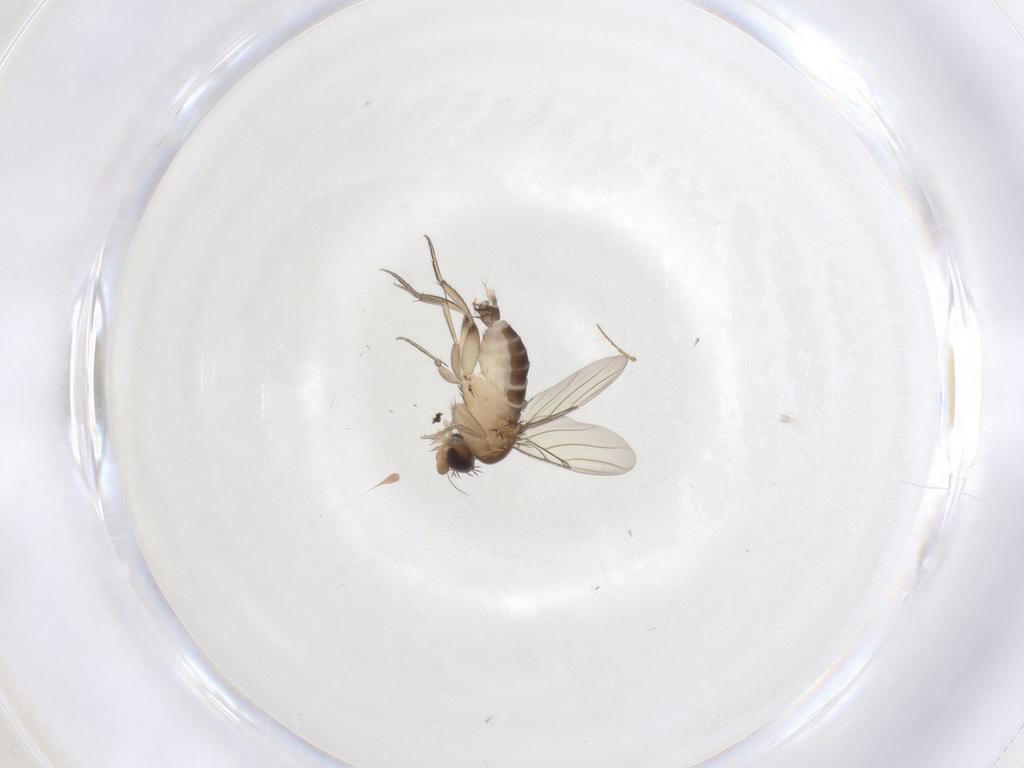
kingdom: Animalia
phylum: Arthropoda
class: Insecta
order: Diptera
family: Phoridae
